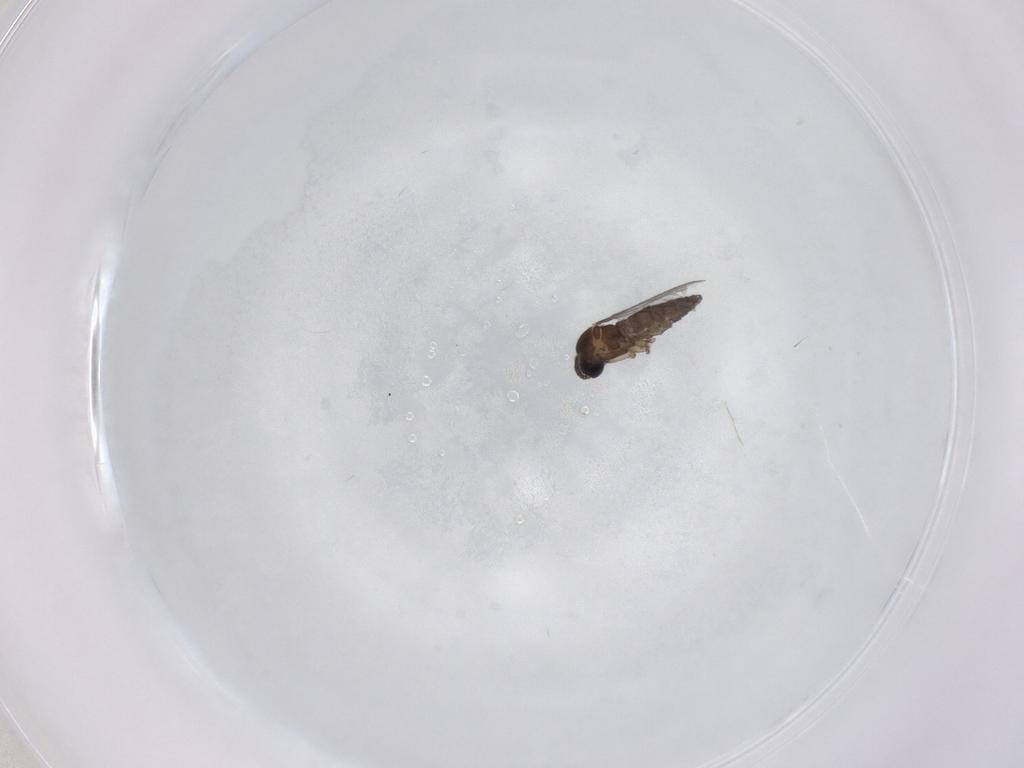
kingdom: Animalia
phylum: Arthropoda
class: Insecta
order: Diptera
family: Psychodidae
